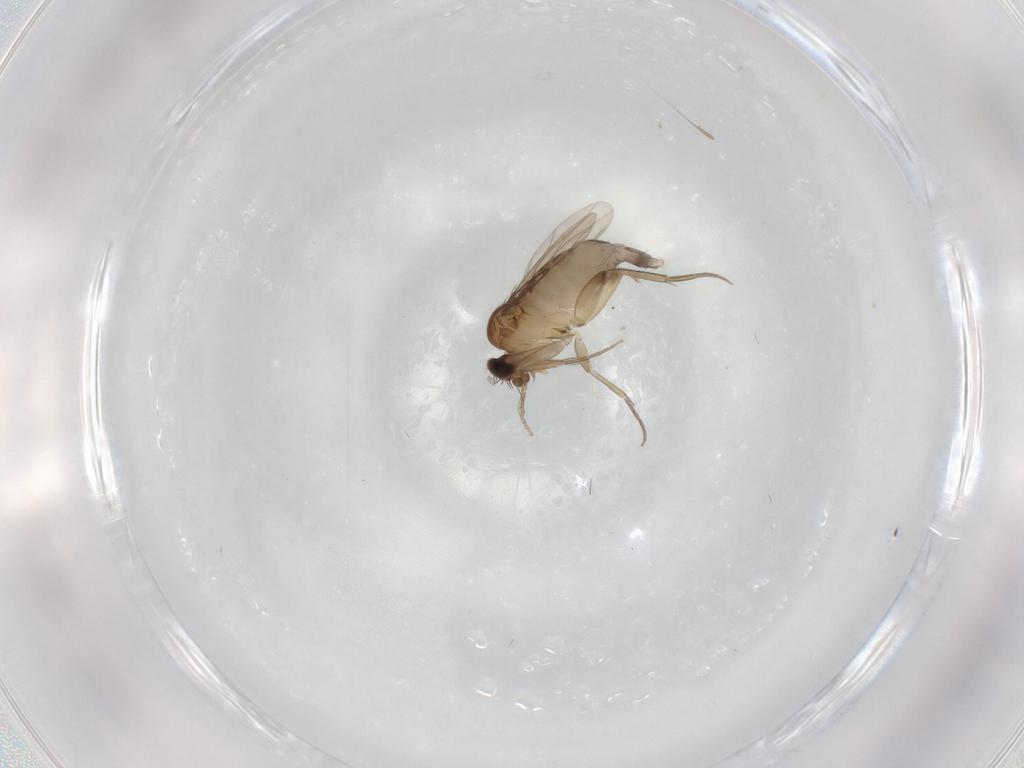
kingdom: Animalia
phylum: Arthropoda
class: Insecta
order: Diptera
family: Phoridae
